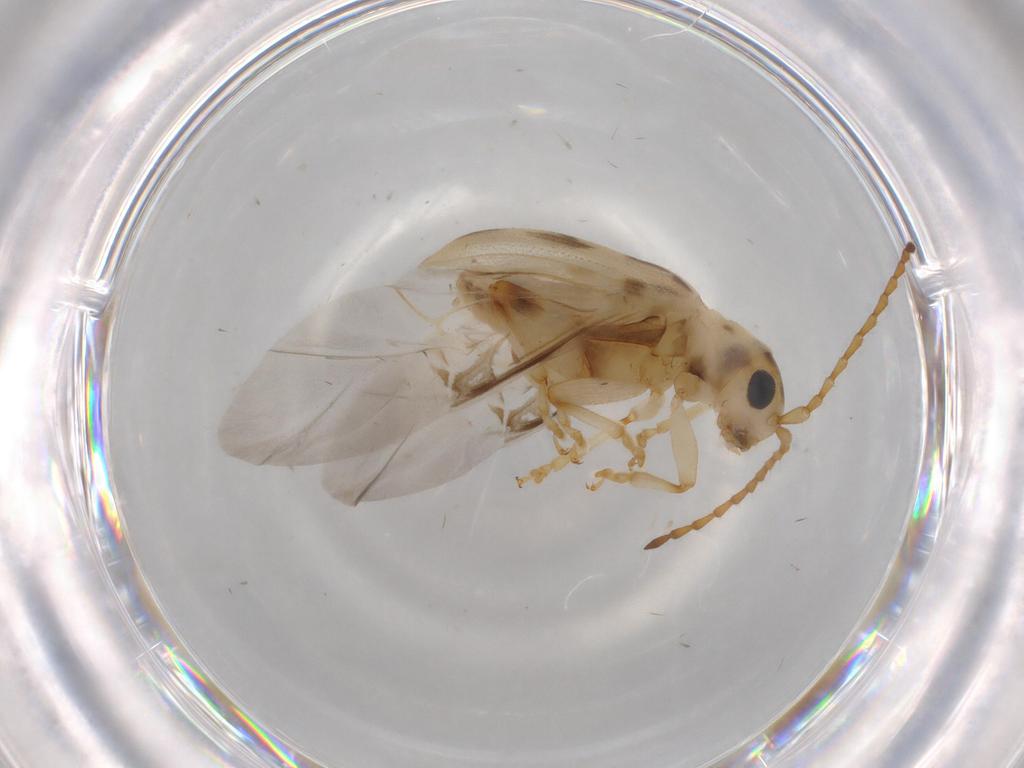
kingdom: Animalia
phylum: Arthropoda
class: Insecta
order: Coleoptera
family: Chrysomelidae
